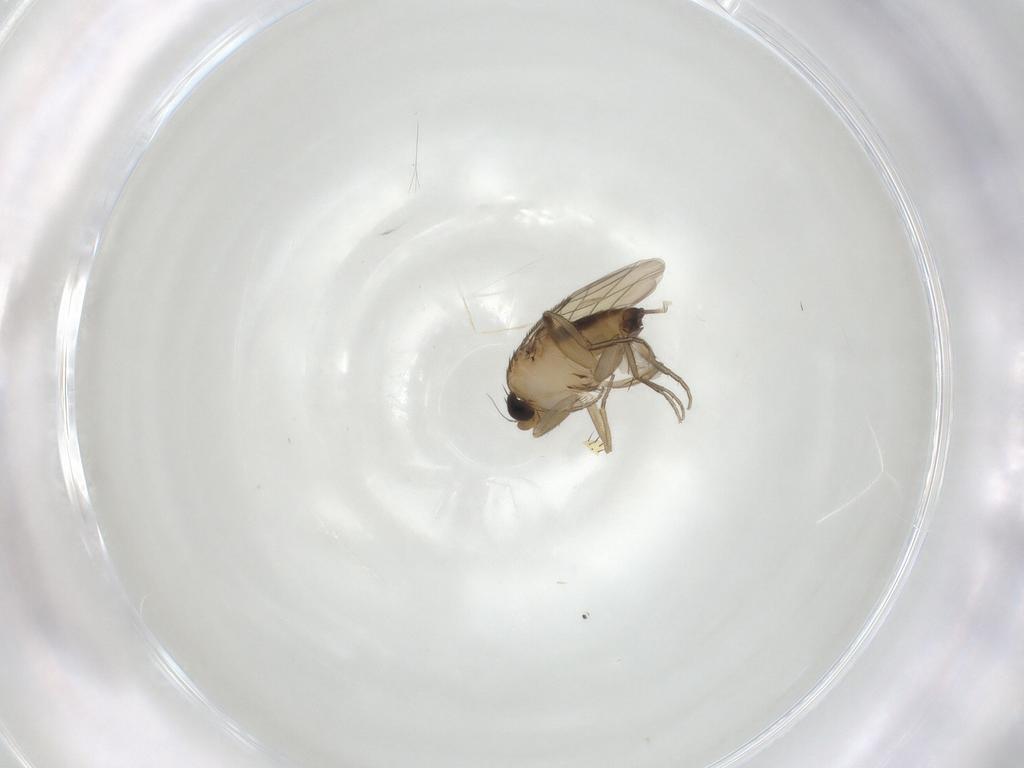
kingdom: Animalia
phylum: Arthropoda
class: Insecta
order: Diptera
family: Phoridae
